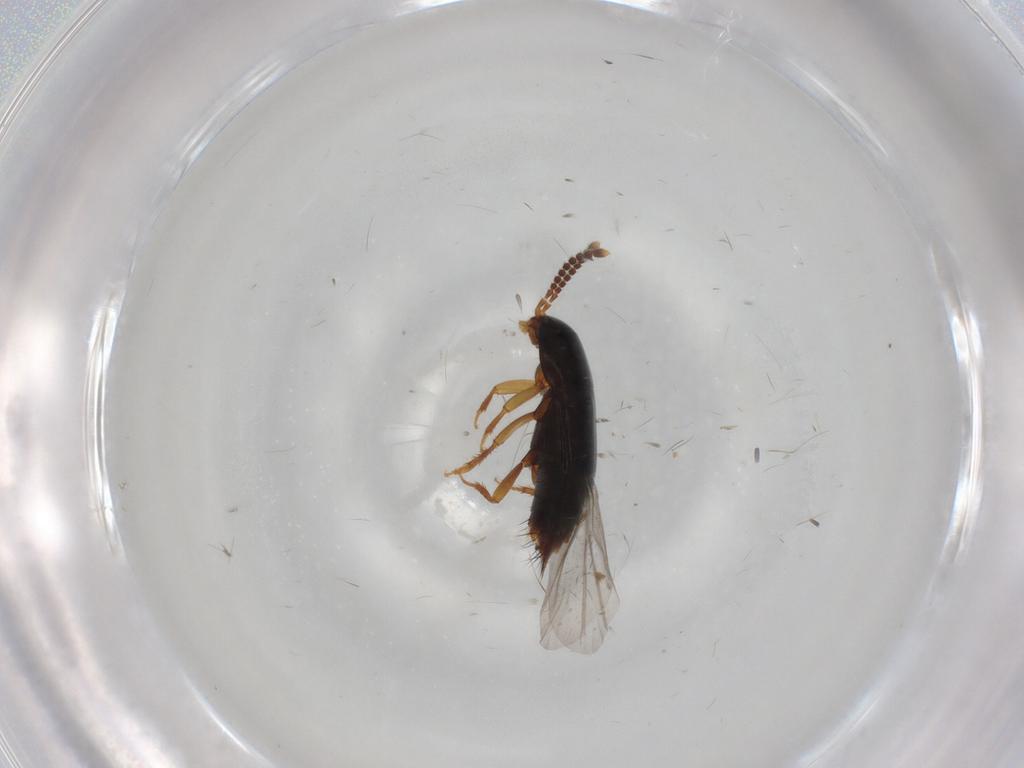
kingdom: Animalia
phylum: Arthropoda
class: Insecta
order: Coleoptera
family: Staphylinidae
